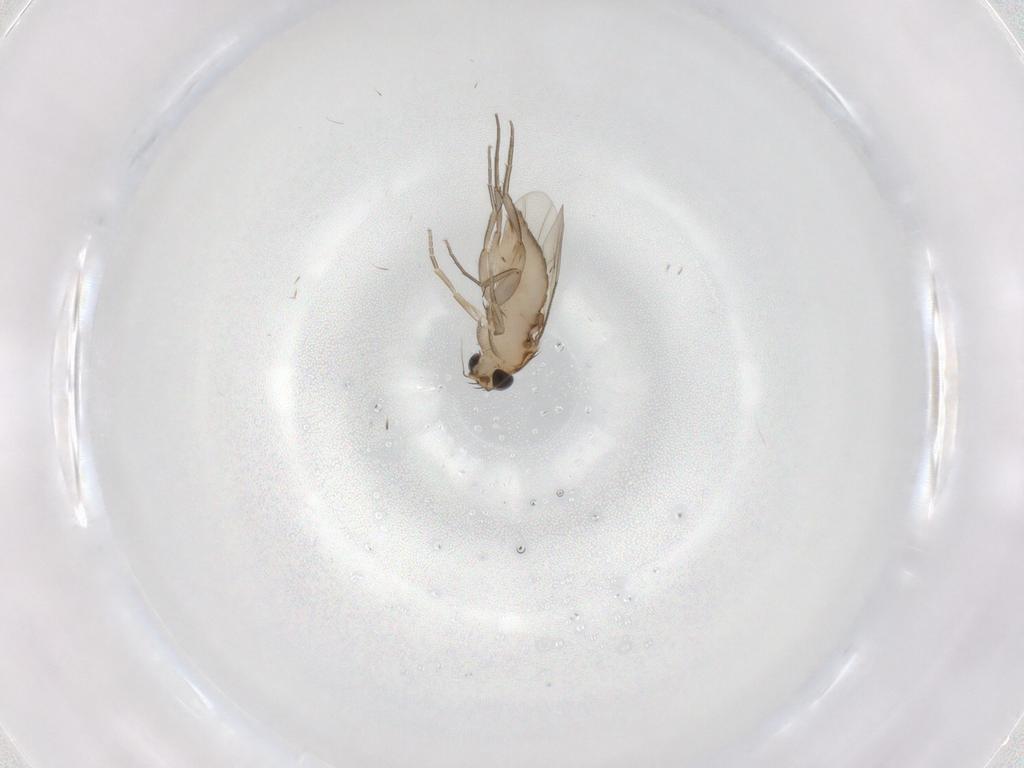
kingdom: Animalia
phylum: Arthropoda
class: Insecta
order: Diptera
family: Phoridae
